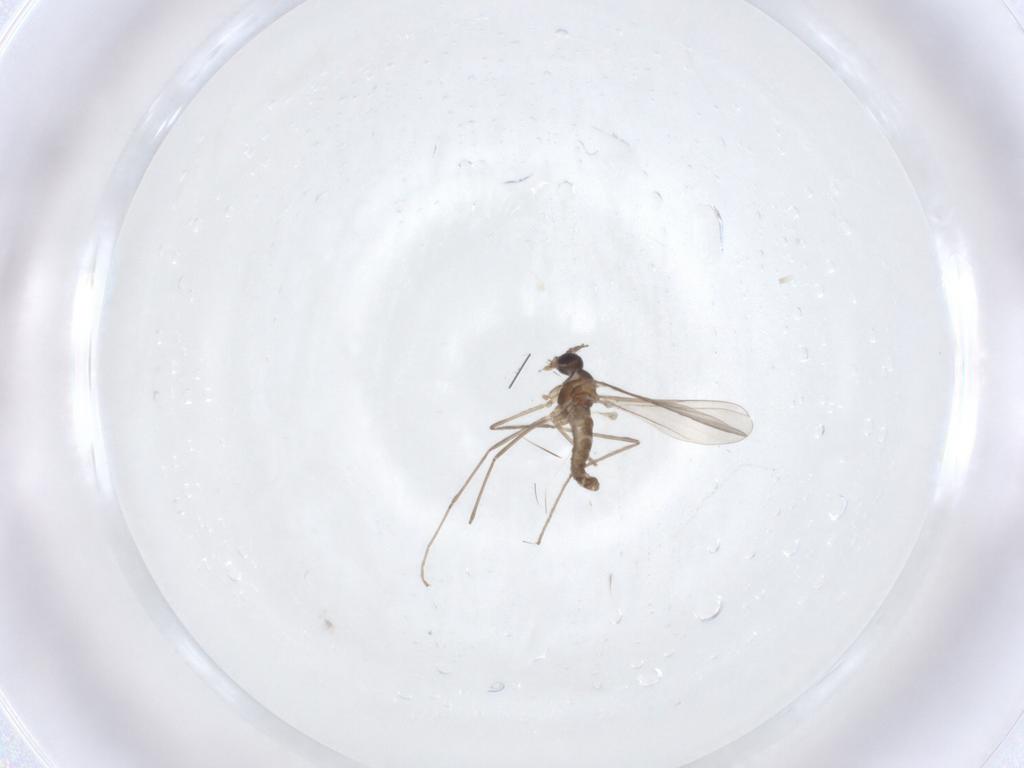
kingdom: Animalia
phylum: Arthropoda
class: Insecta
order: Diptera
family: Cecidomyiidae
